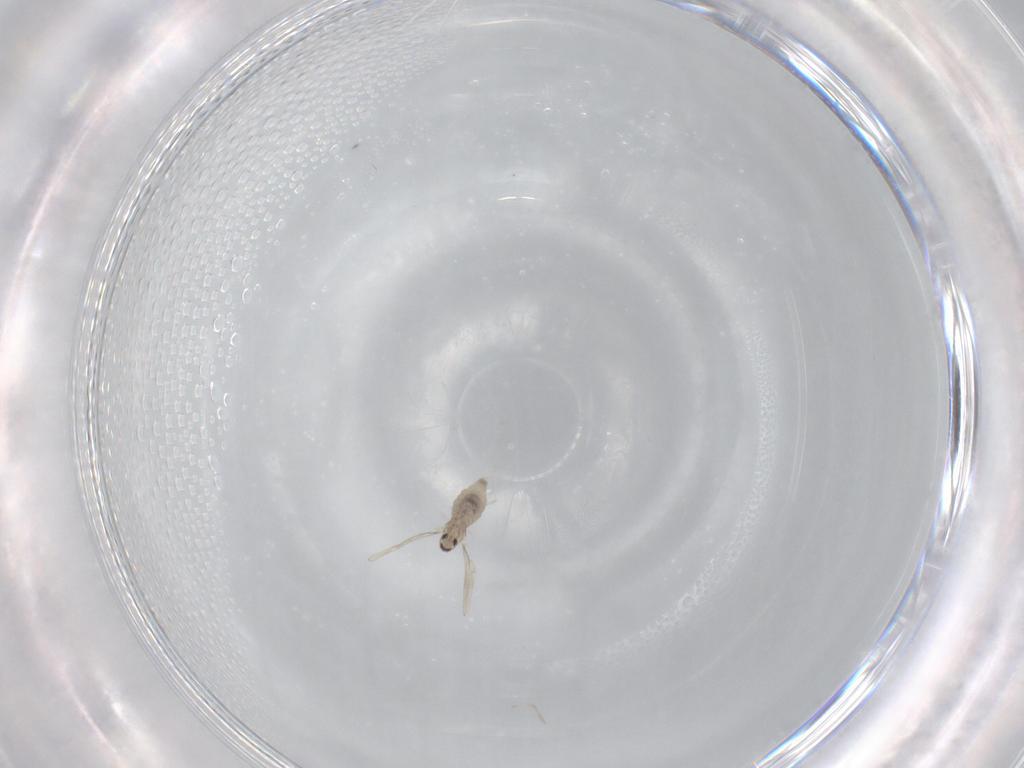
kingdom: Animalia
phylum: Arthropoda
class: Insecta
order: Diptera
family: Cecidomyiidae
